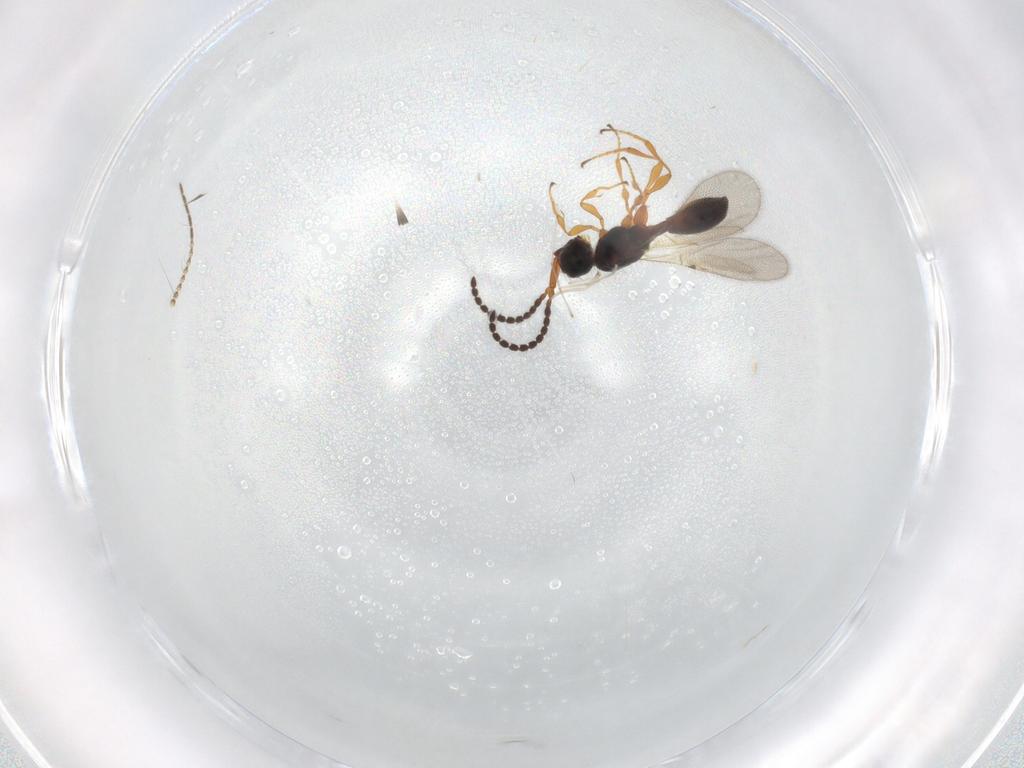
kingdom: Animalia
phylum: Arthropoda
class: Insecta
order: Hymenoptera
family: Mymaridae
